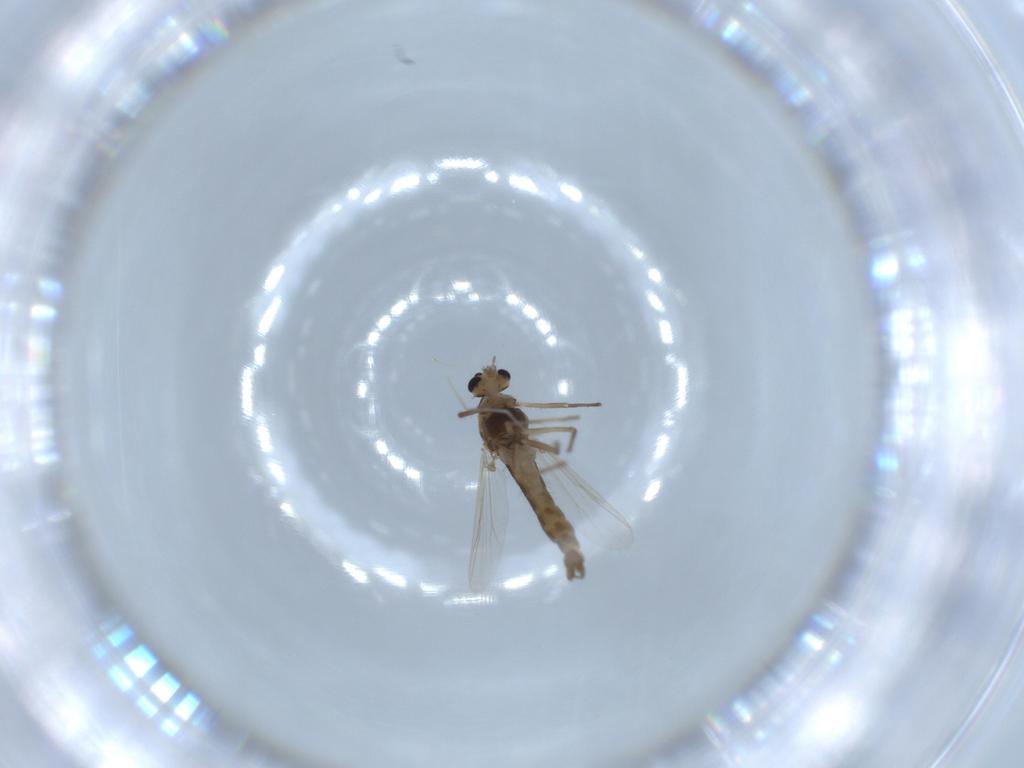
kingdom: Animalia
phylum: Arthropoda
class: Insecta
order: Diptera
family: Chironomidae
